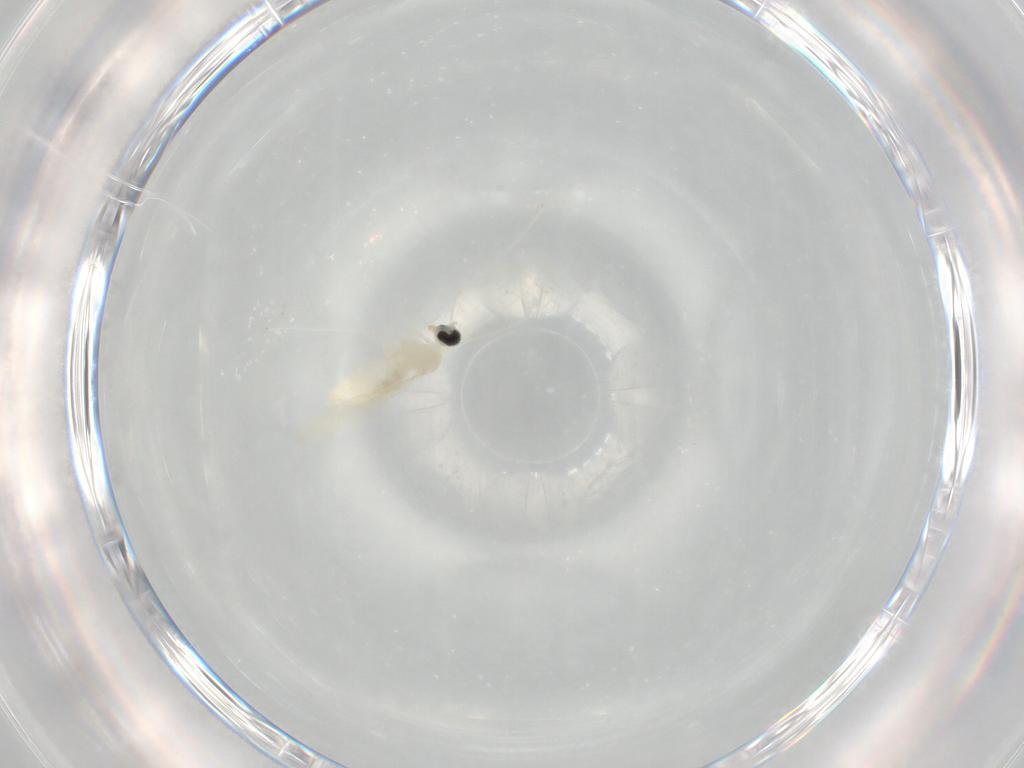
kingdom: Animalia
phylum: Arthropoda
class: Insecta
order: Diptera
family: Cecidomyiidae
